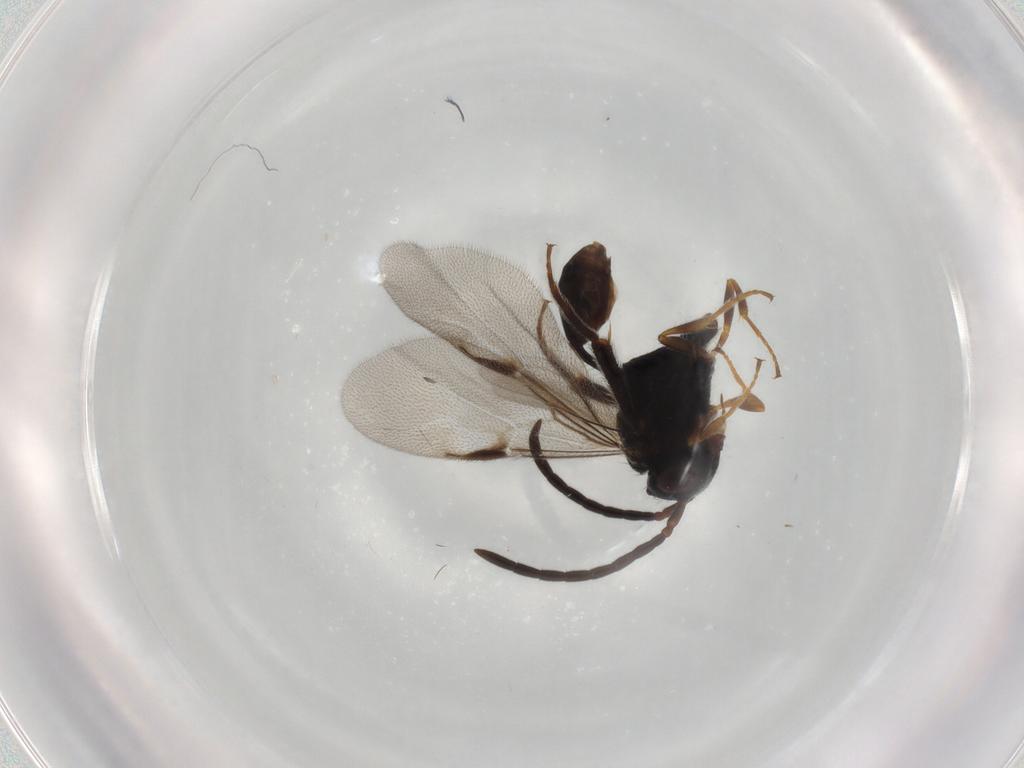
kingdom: Animalia
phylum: Arthropoda
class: Insecta
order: Hymenoptera
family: Evaniidae
